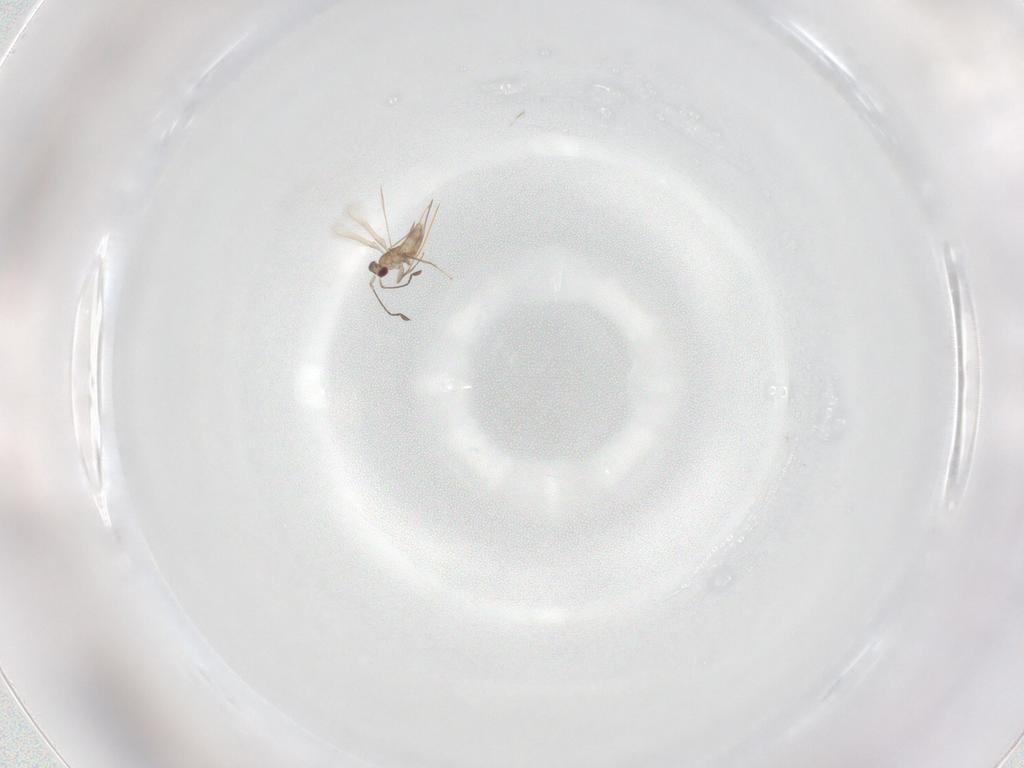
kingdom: Animalia
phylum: Arthropoda
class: Insecta
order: Hymenoptera
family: Mymaridae
